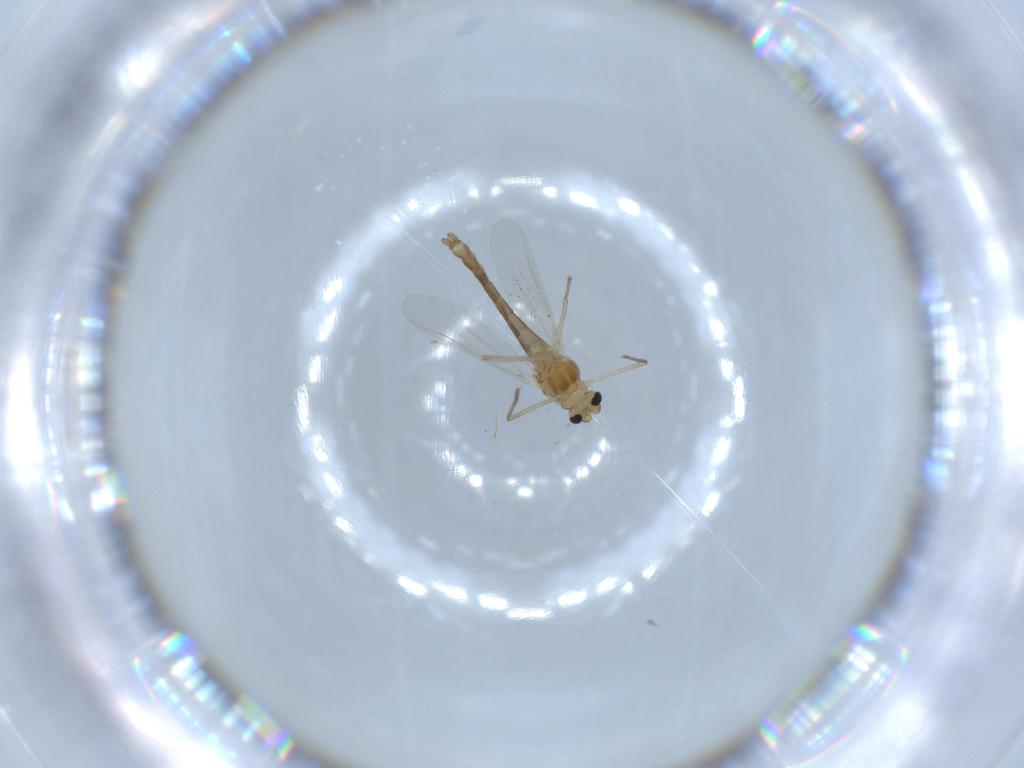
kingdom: Animalia
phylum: Arthropoda
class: Insecta
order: Diptera
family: Chironomidae
